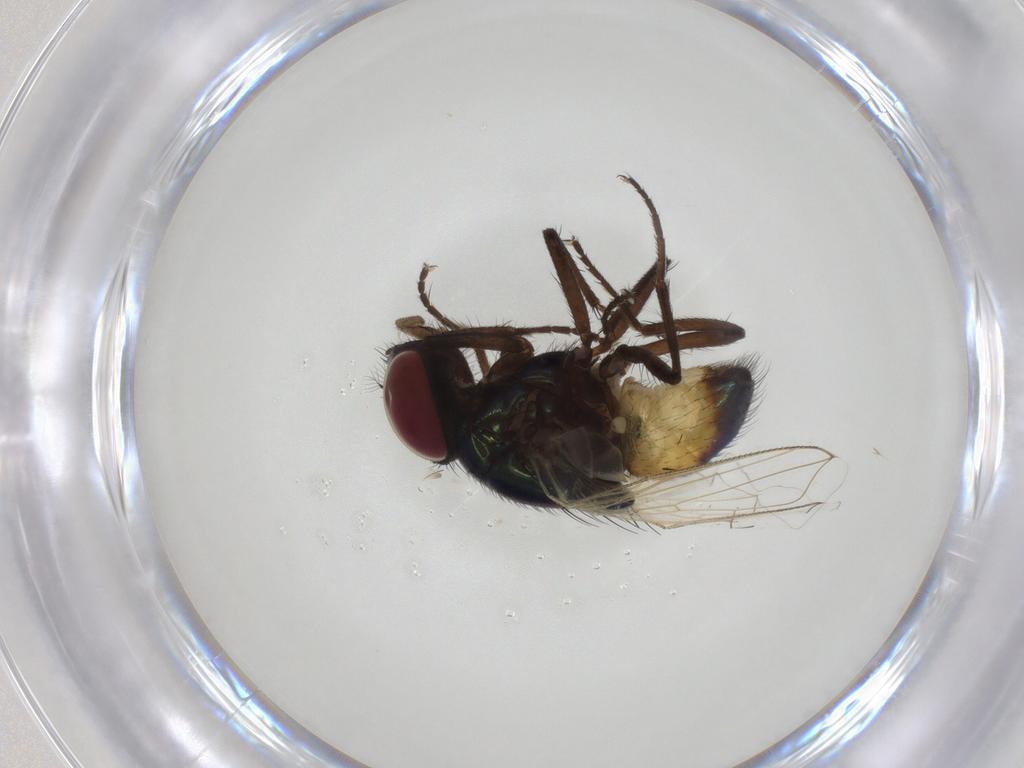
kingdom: Animalia
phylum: Arthropoda
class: Insecta
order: Diptera
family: Muscidae
